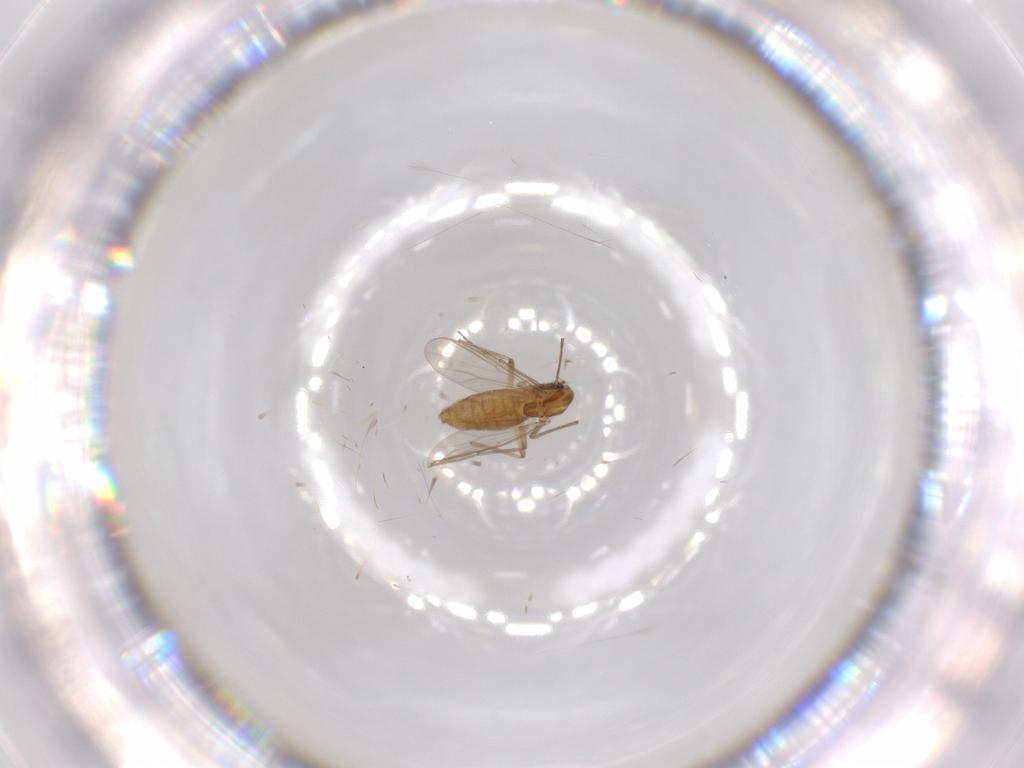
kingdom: Animalia
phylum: Arthropoda
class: Insecta
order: Diptera
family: Chironomidae
